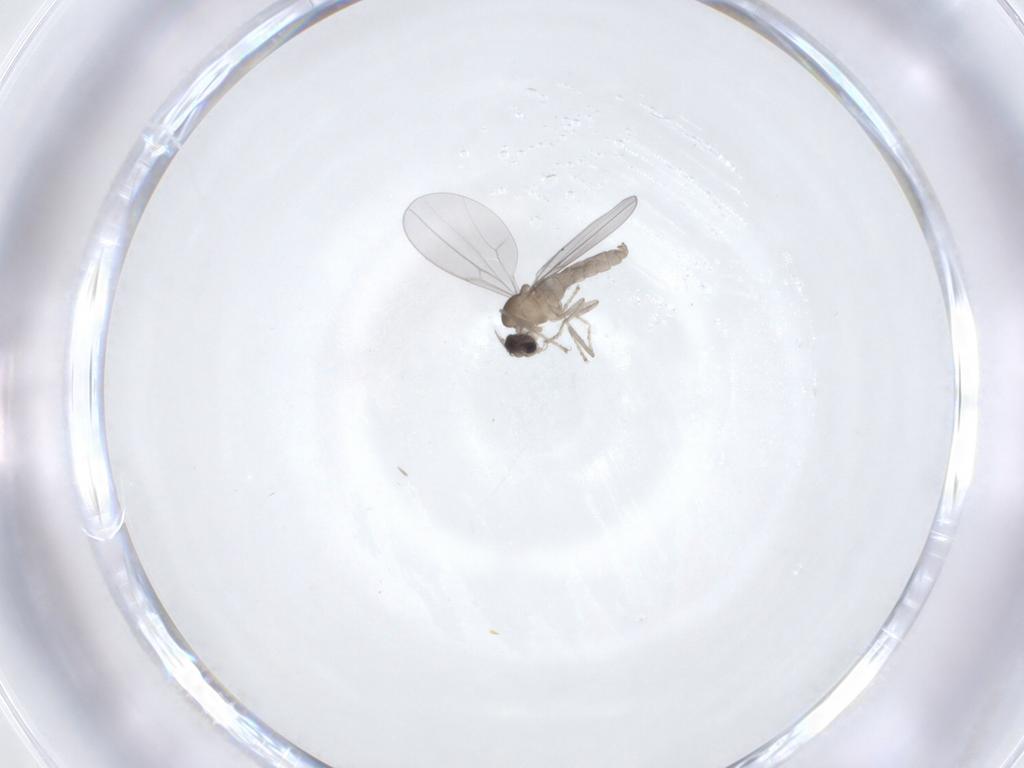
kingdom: Animalia
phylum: Arthropoda
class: Insecta
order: Diptera
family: Cecidomyiidae
